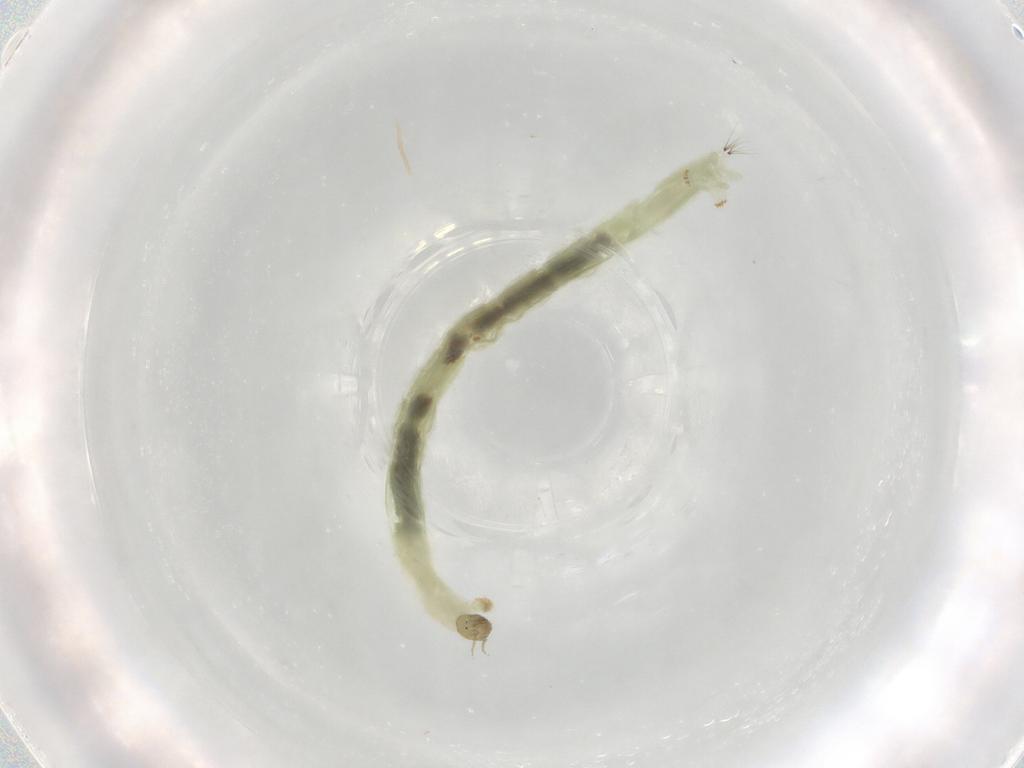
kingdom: Animalia
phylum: Arthropoda
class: Insecta
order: Diptera
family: Chironomidae
